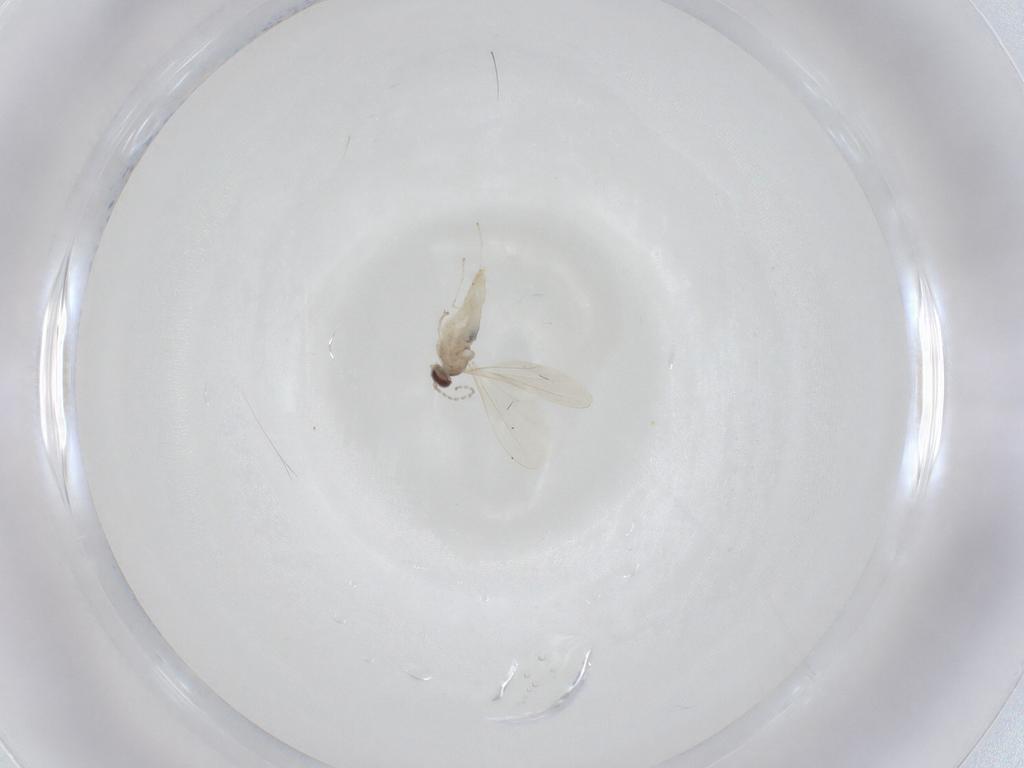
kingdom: Animalia
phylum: Arthropoda
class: Insecta
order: Diptera
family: Cecidomyiidae
